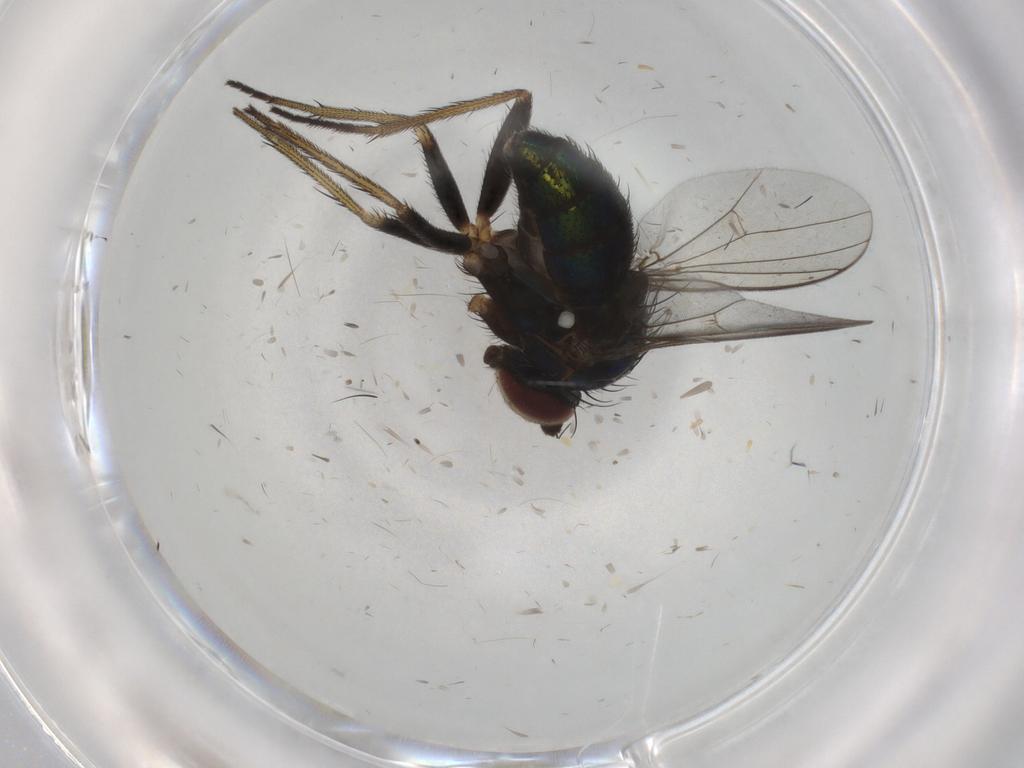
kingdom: Animalia
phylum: Arthropoda
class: Insecta
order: Diptera
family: Dolichopodidae
